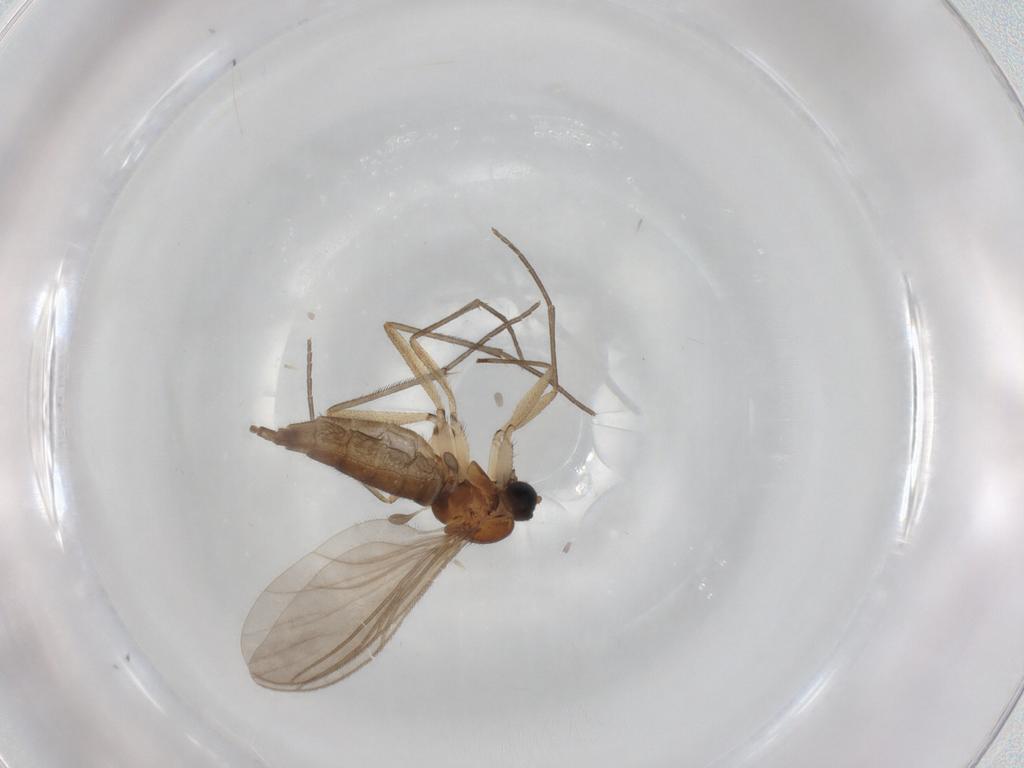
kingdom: Animalia
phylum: Arthropoda
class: Insecta
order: Diptera
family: Sciaridae
